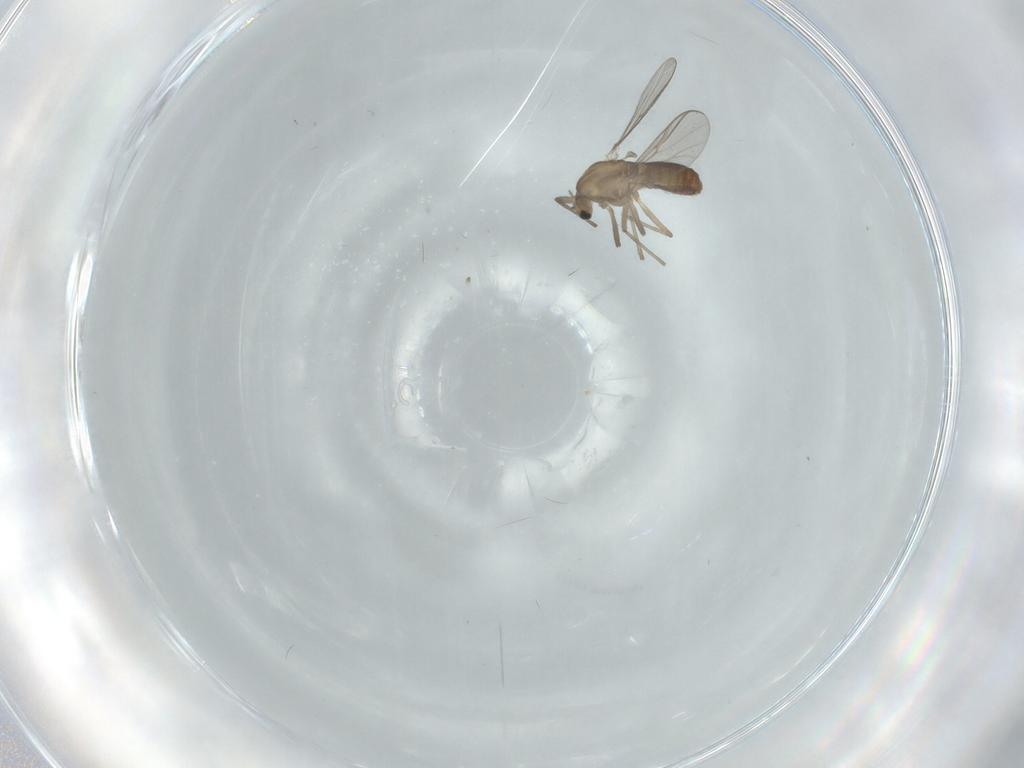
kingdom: Animalia
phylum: Arthropoda
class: Insecta
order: Diptera
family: Chironomidae
